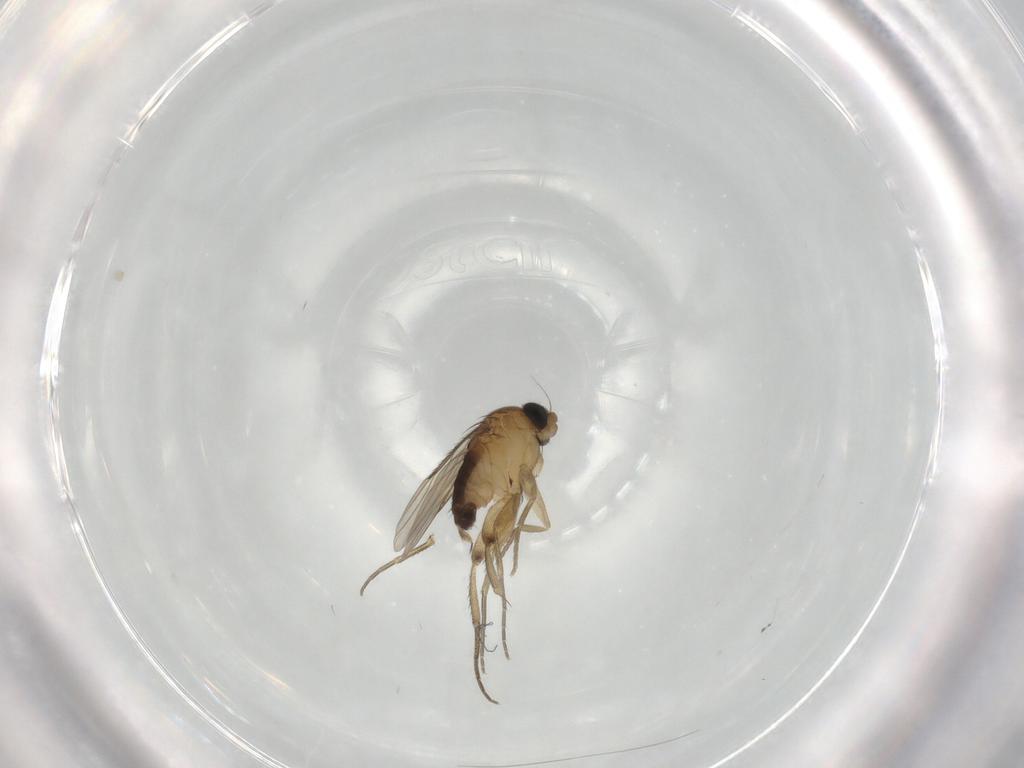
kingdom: Animalia
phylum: Arthropoda
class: Insecta
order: Diptera
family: Phoridae
